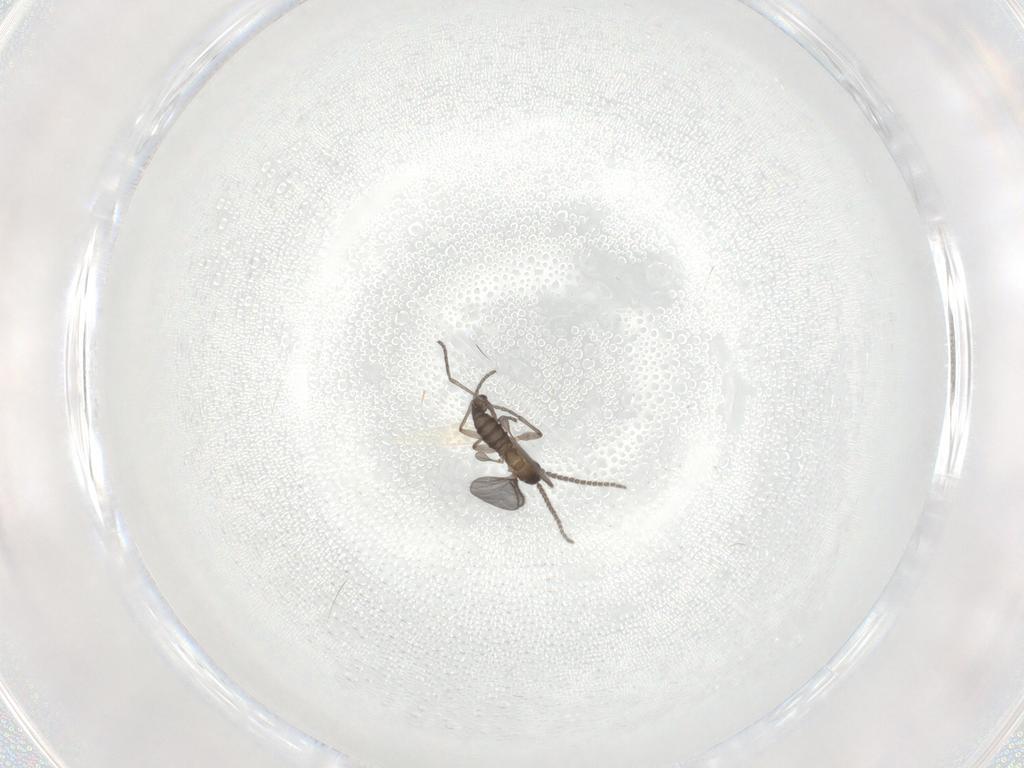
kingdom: Animalia
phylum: Arthropoda
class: Insecta
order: Diptera
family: Sciaridae
